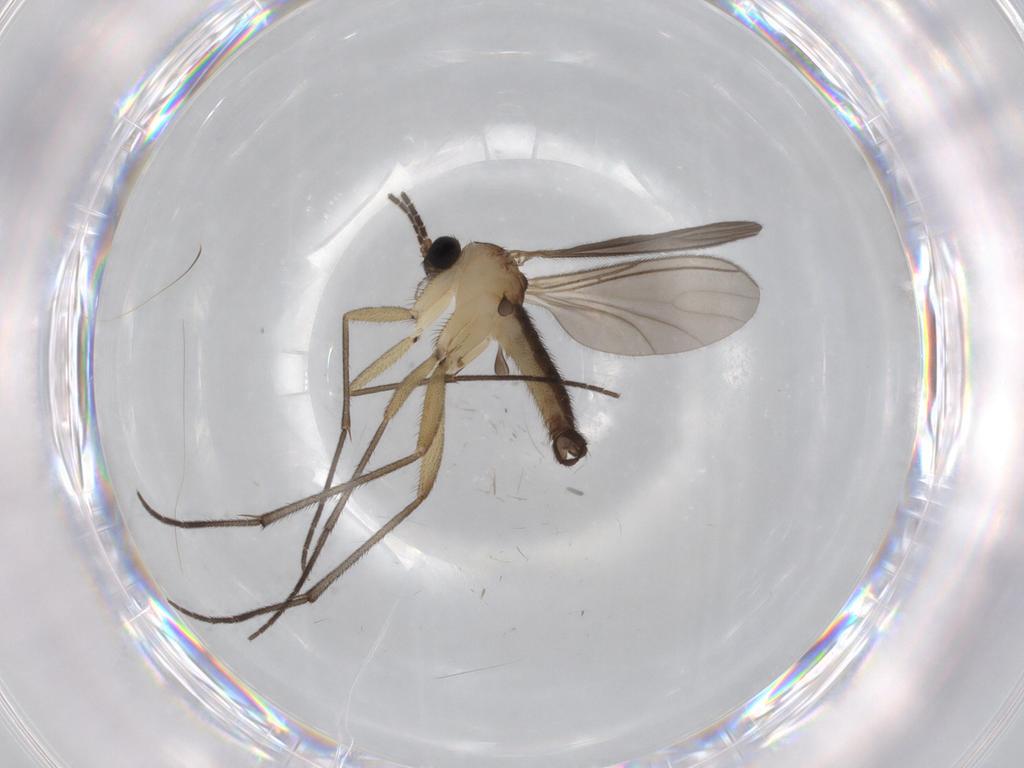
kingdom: Animalia
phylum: Arthropoda
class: Insecta
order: Diptera
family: Sciaridae
